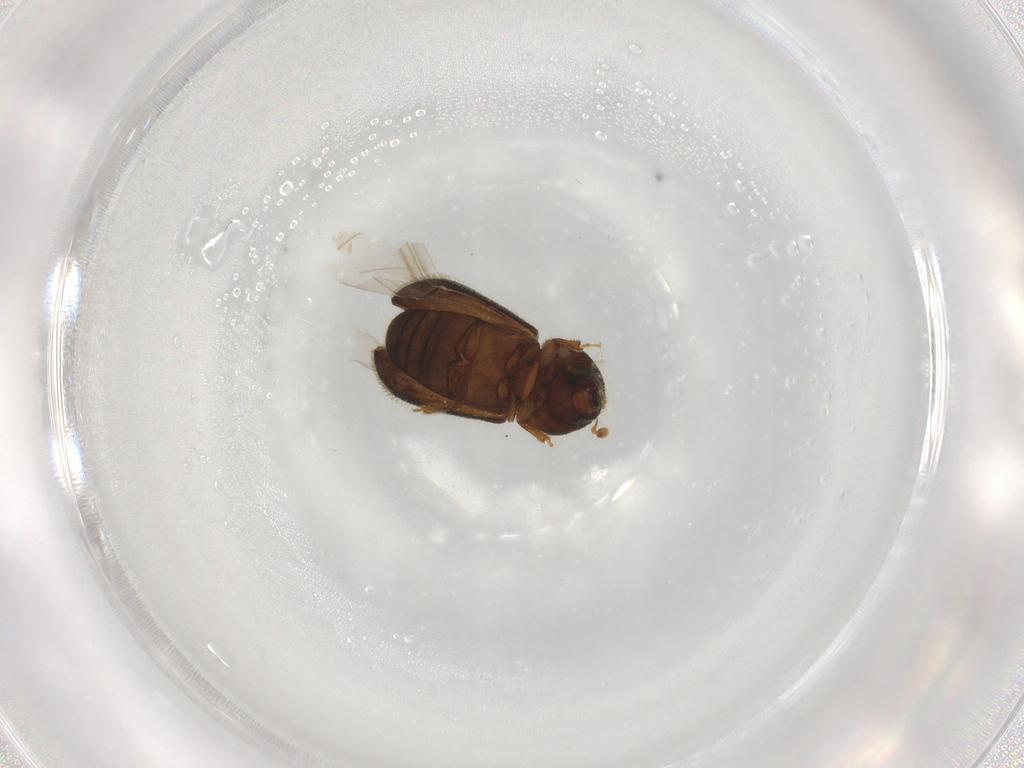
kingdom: Animalia
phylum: Arthropoda
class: Insecta
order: Coleoptera
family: Curculionidae
